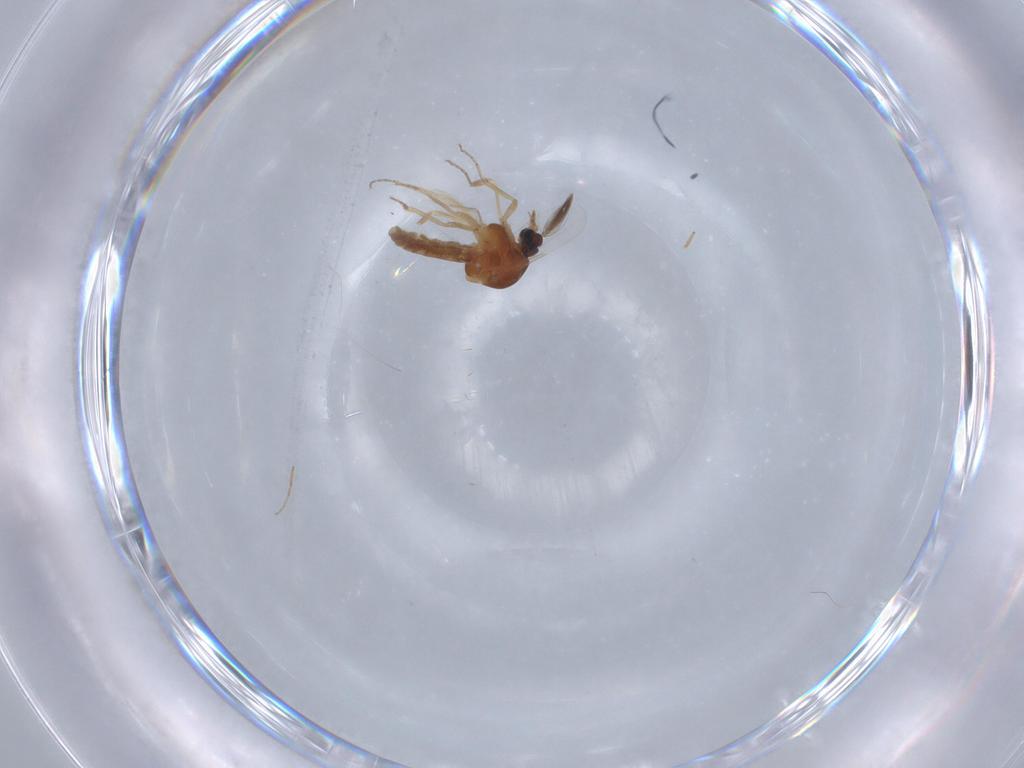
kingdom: Animalia
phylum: Arthropoda
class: Insecta
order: Diptera
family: Ceratopogonidae
